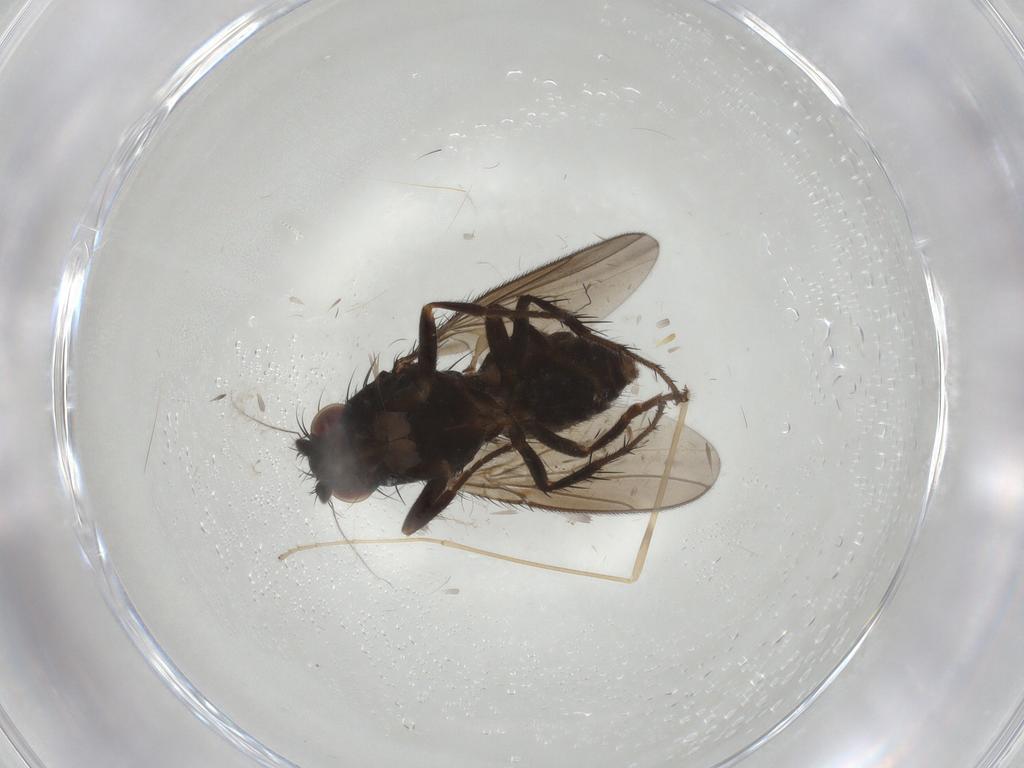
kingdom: Animalia
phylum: Arthropoda
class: Insecta
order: Diptera
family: Sphaeroceridae
